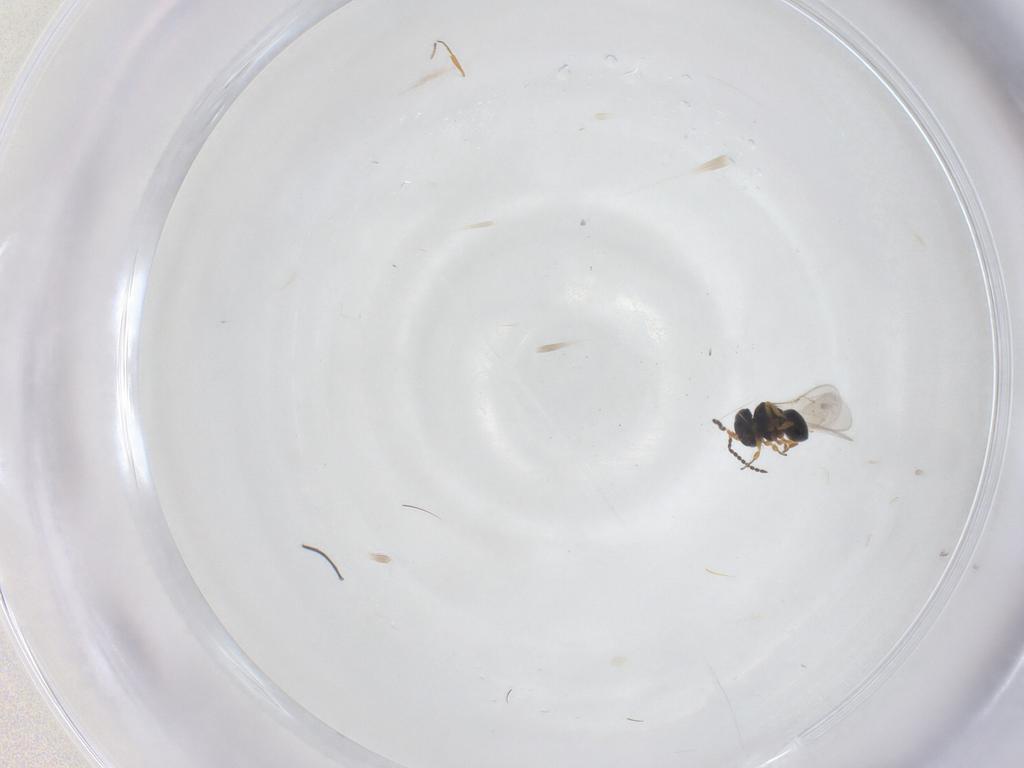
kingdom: Animalia
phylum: Arthropoda
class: Insecta
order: Hymenoptera
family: Scelionidae
